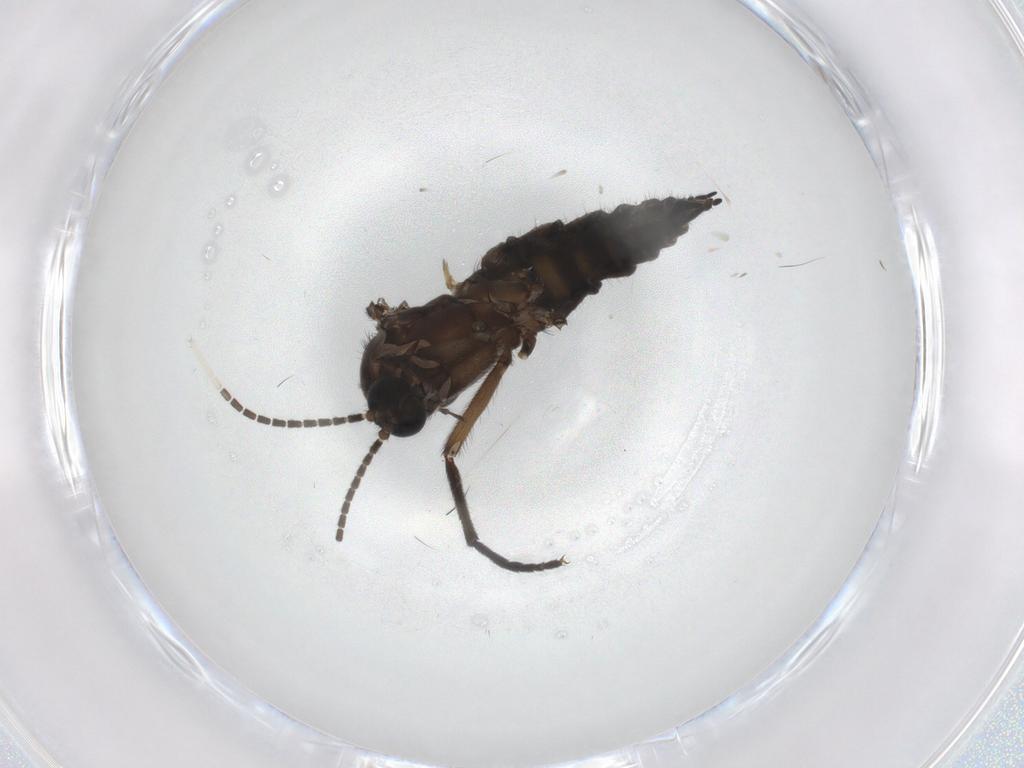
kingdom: Animalia
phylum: Arthropoda
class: Insecta
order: Diptera
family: Sciaridae
